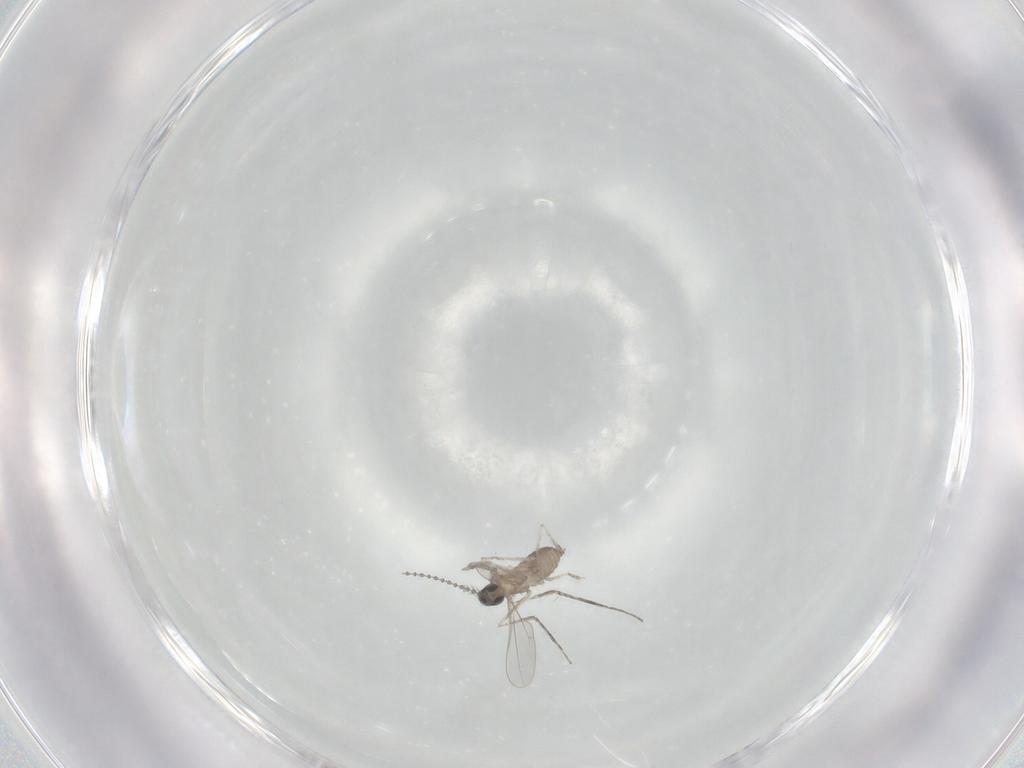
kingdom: Animalia
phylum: Arthropoda
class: Insecta
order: Diptera
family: Cecidomyiidae
